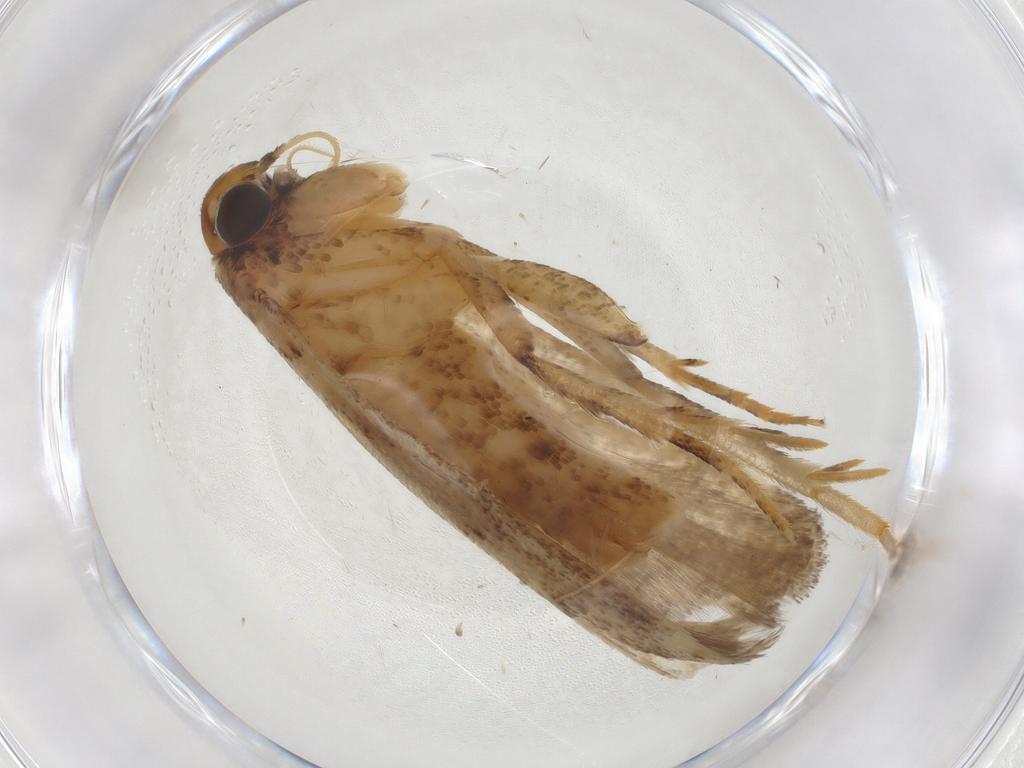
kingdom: Animalia
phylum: Arthropoda
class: Insecta
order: Lepidoptera
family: Gelechiidae
